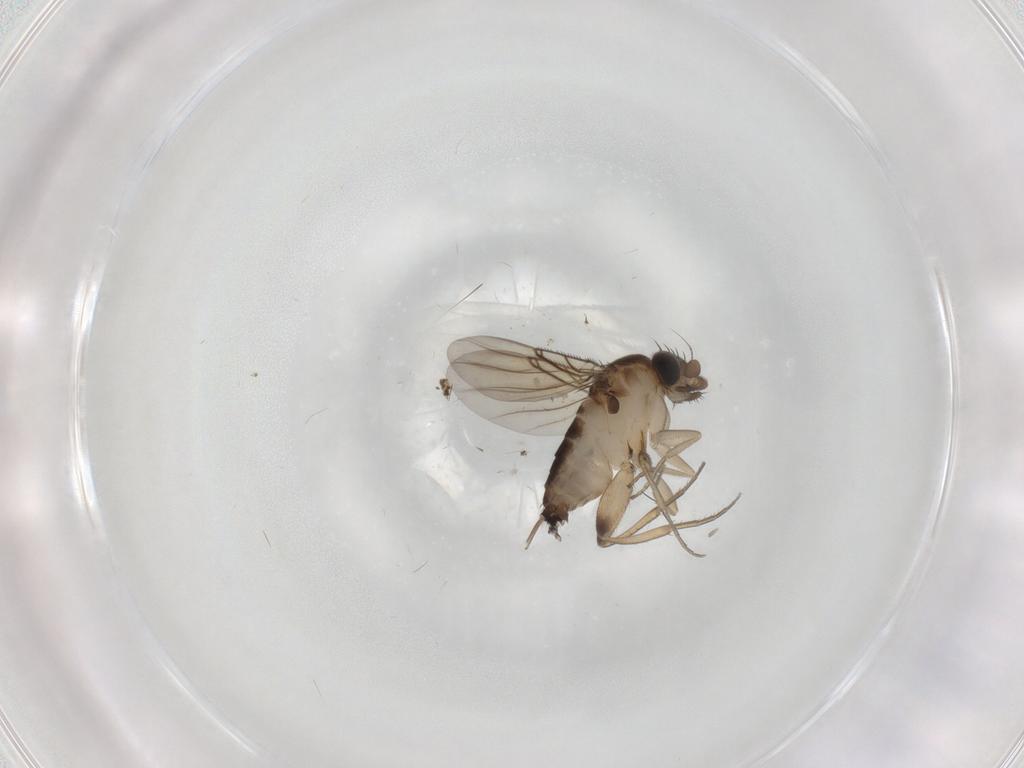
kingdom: Animalia
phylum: Arthropoda
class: Insecta
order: Diptera
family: Phoridae
